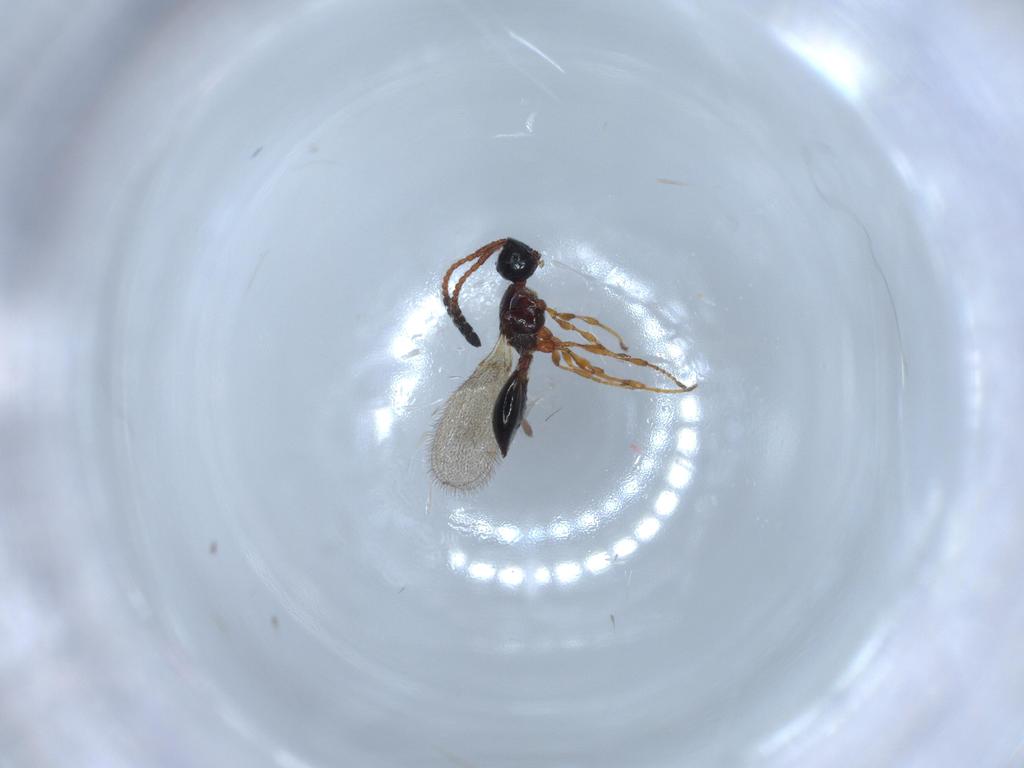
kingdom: Animalia
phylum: Arthropoda
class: Insecta
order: Hymenoptera
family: Diapriidae
